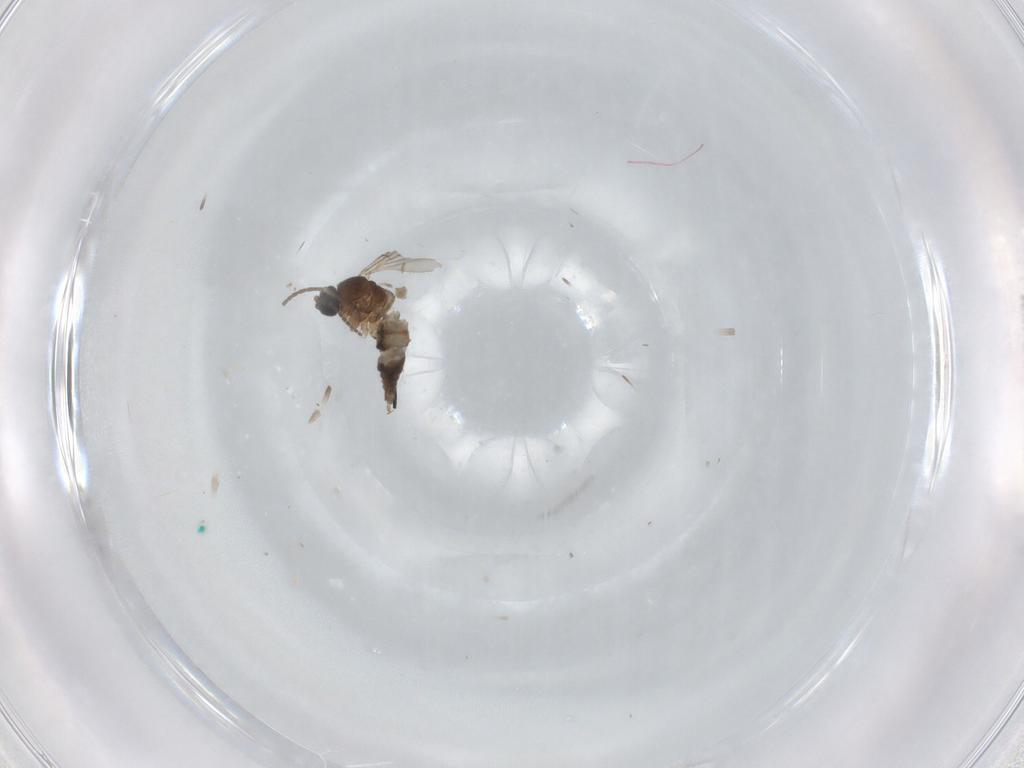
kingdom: Animalia
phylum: Arthropoda
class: Insecta
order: Diptera
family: Sciaridae
